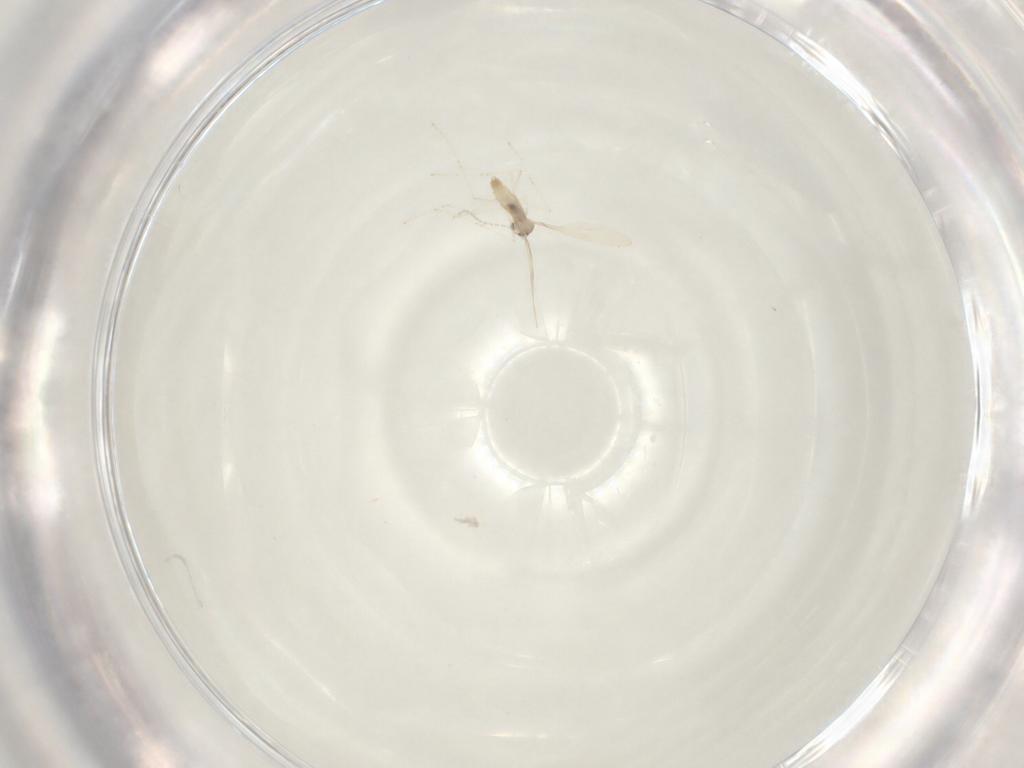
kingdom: Animalia
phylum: Arthropoda
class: Insecta
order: Diptera
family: Cecidomyiidae
